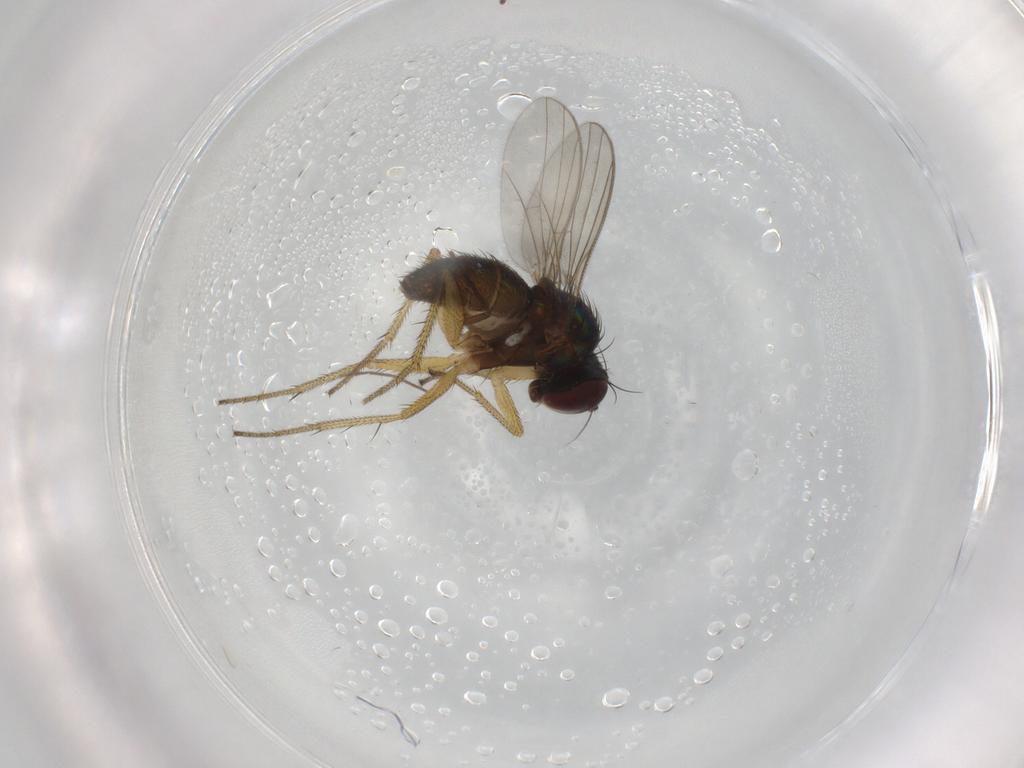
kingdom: Animalia
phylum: Arthropoda
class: Insecta
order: Diptera
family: Dolichopodidae
